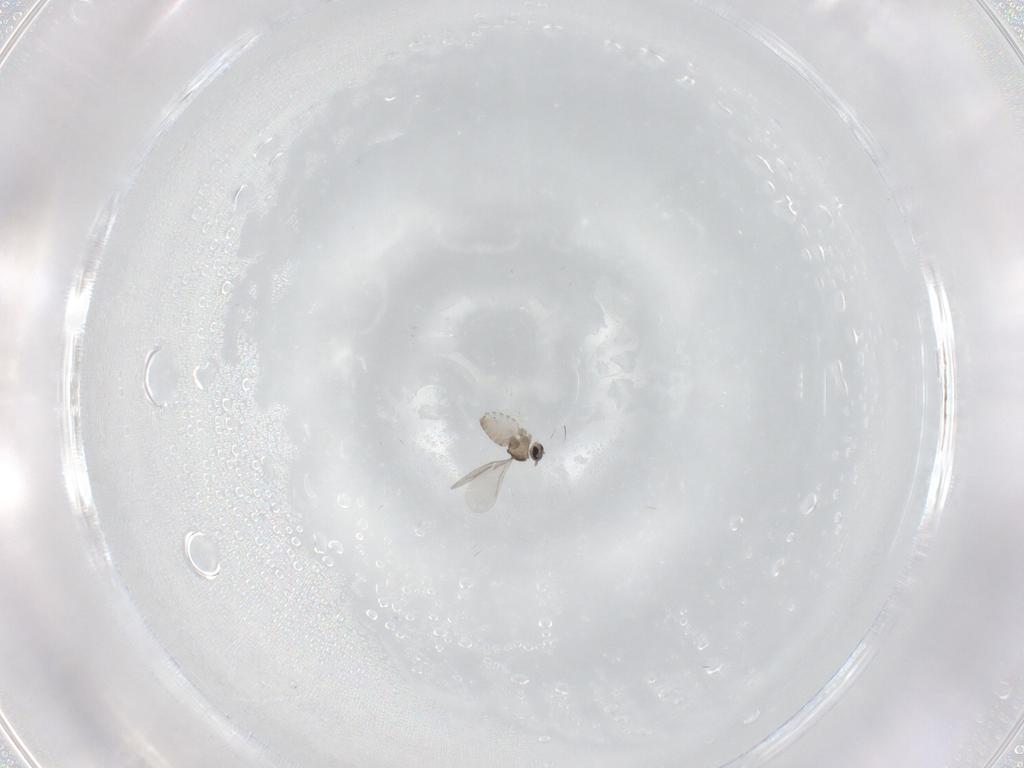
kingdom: Animalia
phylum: Arthropoda
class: Insecta
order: Diptera
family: Cecidomyiidae
